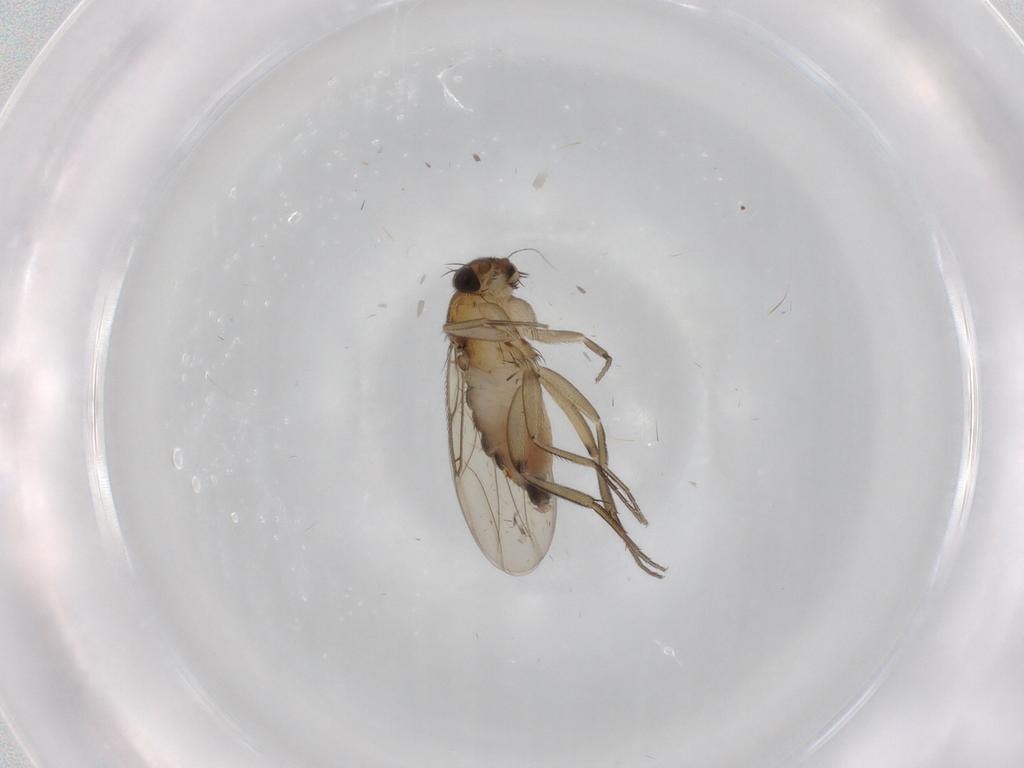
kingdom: Animalia
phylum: Arthropoda
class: Insecta
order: Diptera
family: Phoridae
